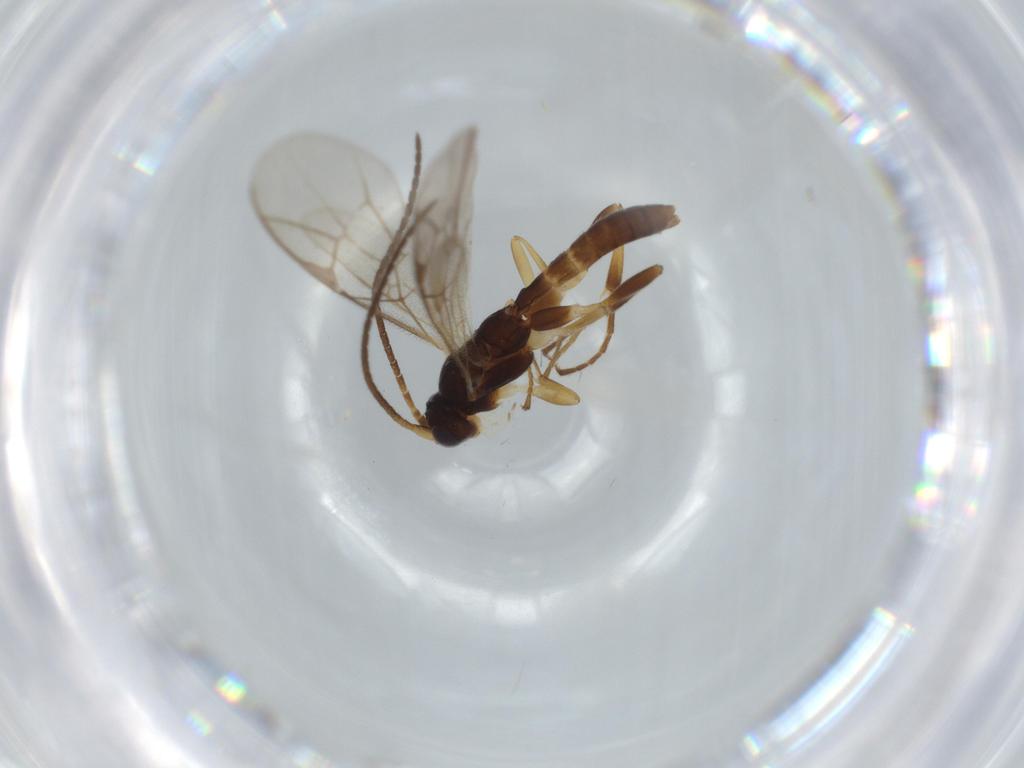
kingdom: Animalia
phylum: Arthropoda
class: Insecta
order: Hymenoptera
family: Ichneumonidae
